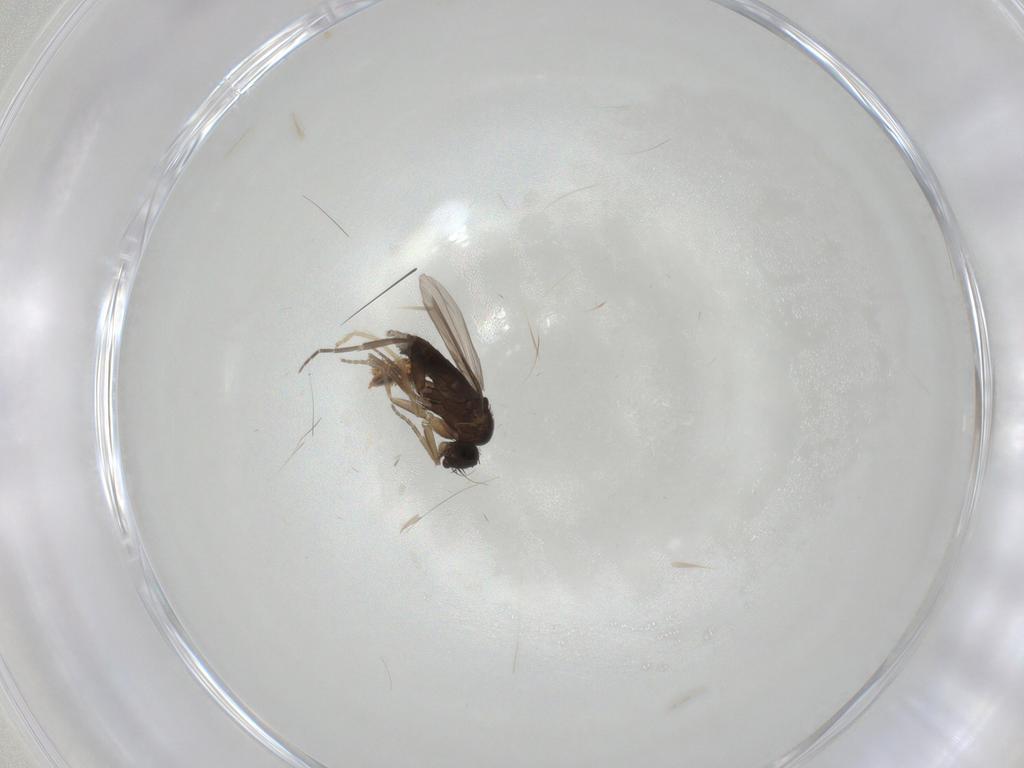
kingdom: Animalia
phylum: Arthropoda
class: Insecta
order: Diptera
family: Phoridae
